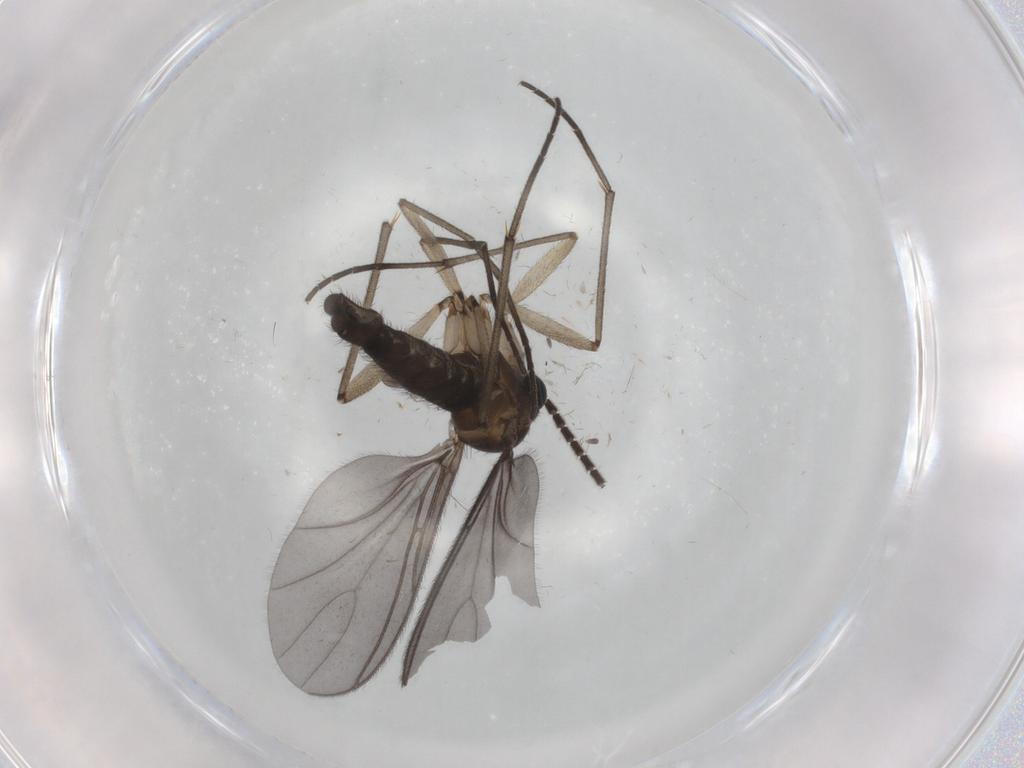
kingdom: Animalia
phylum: Arthropoda
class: Insecta
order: Diptera
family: Sciaridae
